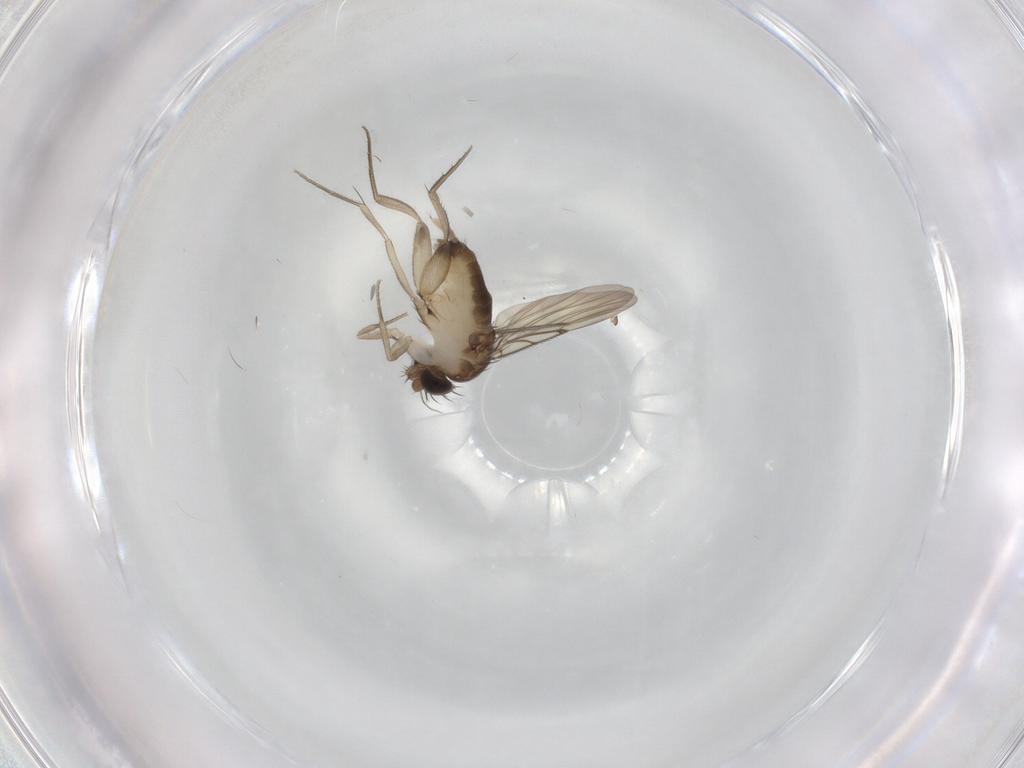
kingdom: Animalia
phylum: Arthropoda
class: Insecta
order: Diptera
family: Phoridae
